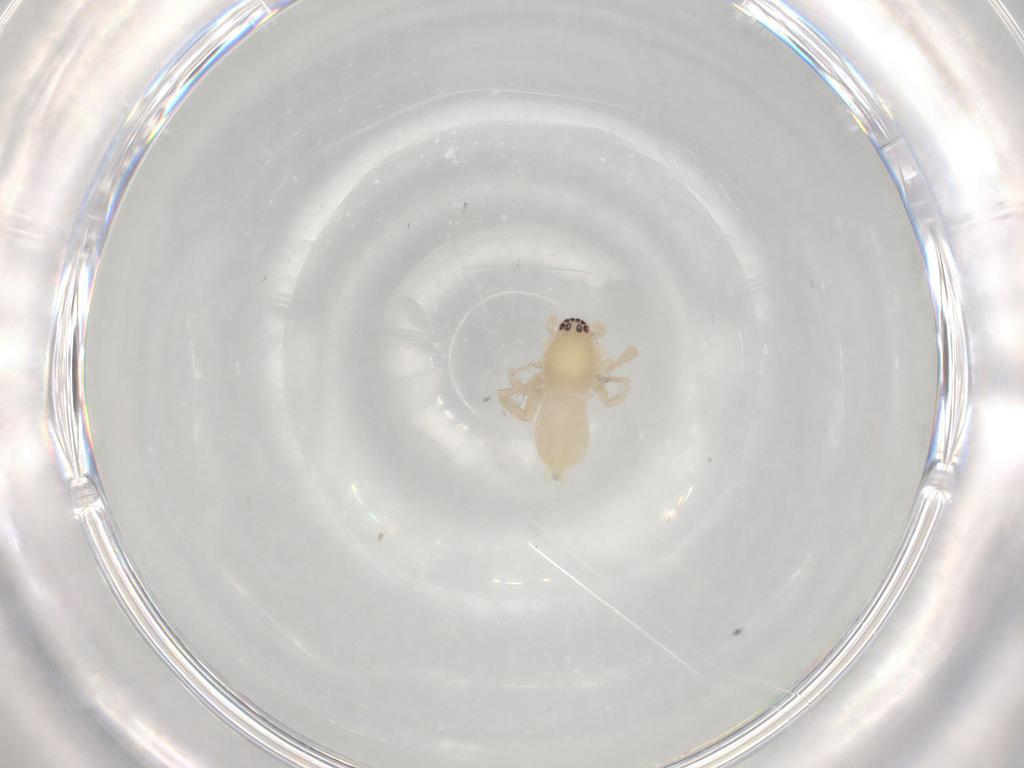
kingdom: Animalia
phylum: Arthropoda
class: Arachnida
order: Araneae
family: Anyphaenidae
